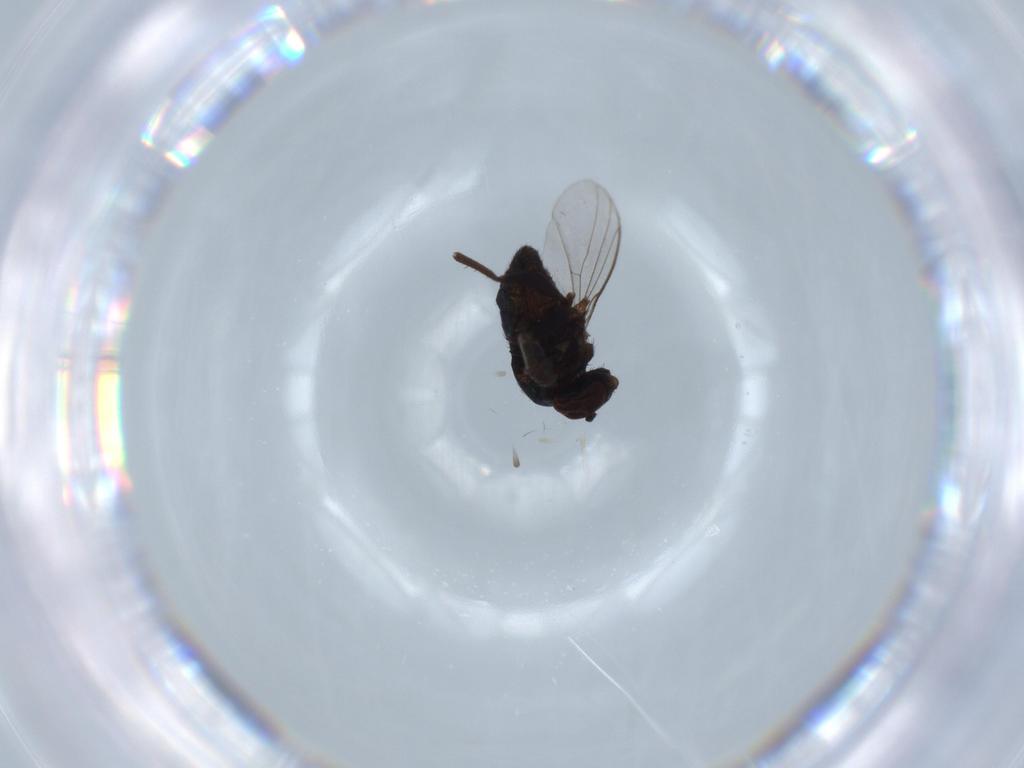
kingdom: Animalia
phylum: Arthropoda
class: Insecta
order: Diptera
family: Dolichopodidae
